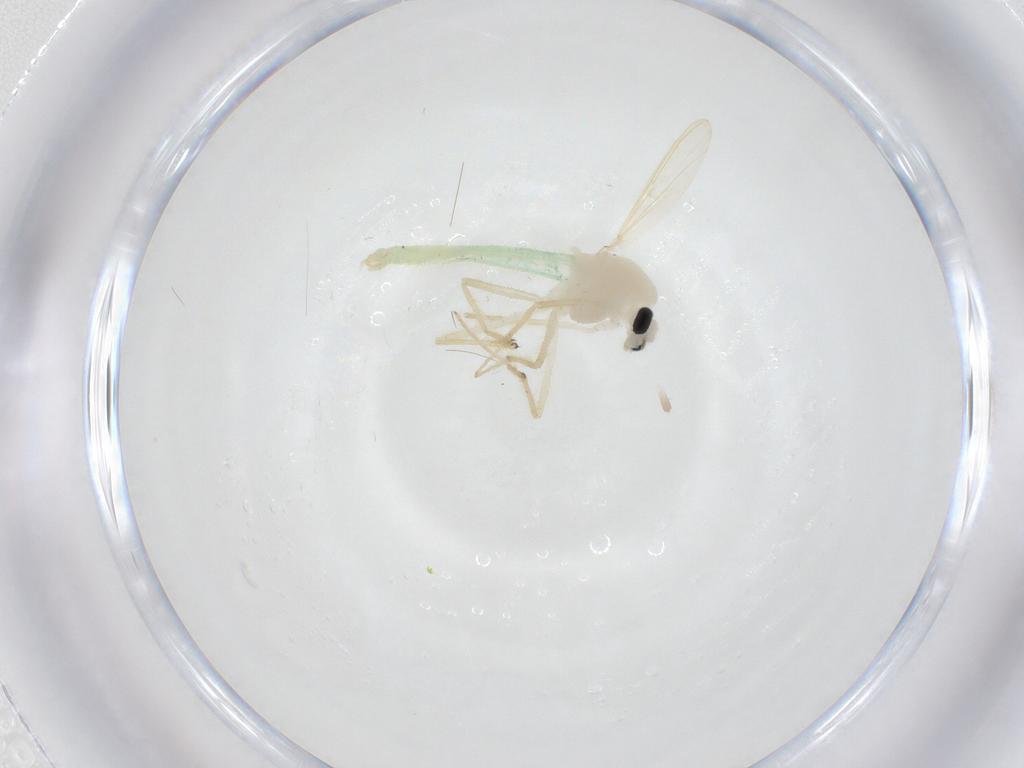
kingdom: Animalia
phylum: Arthropoda
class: Insecta
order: Diptera
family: Chironomidae
